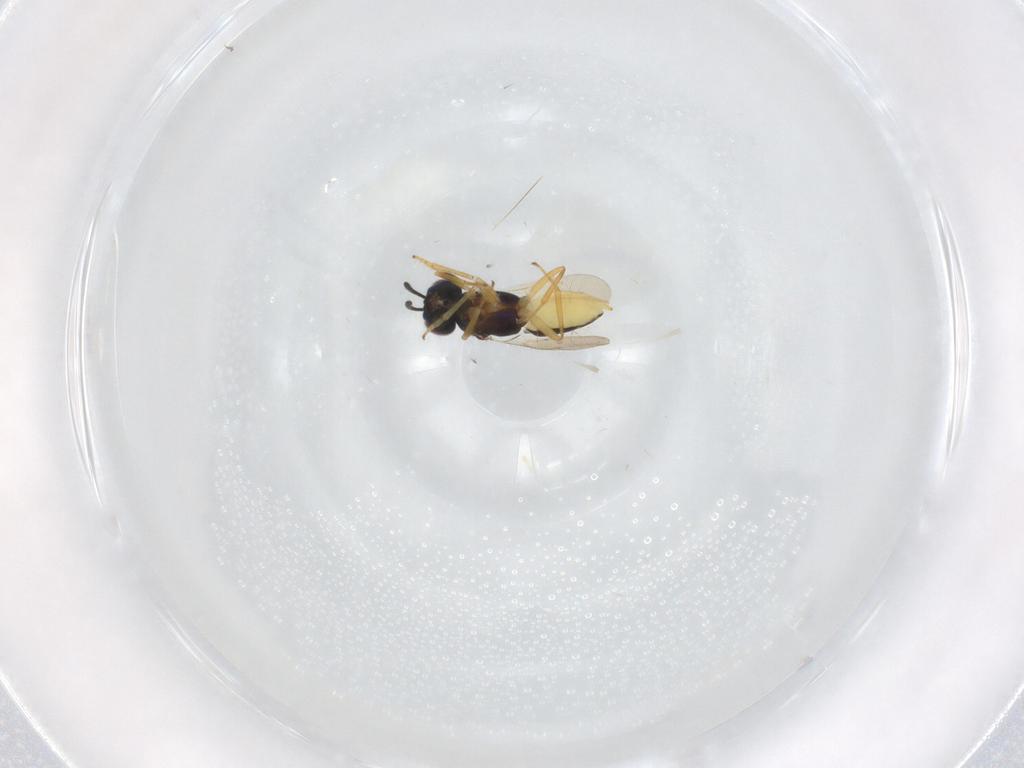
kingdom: Animalia
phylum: Arthropoda
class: Insecta
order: Hymenoptera
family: Encyrtidae
